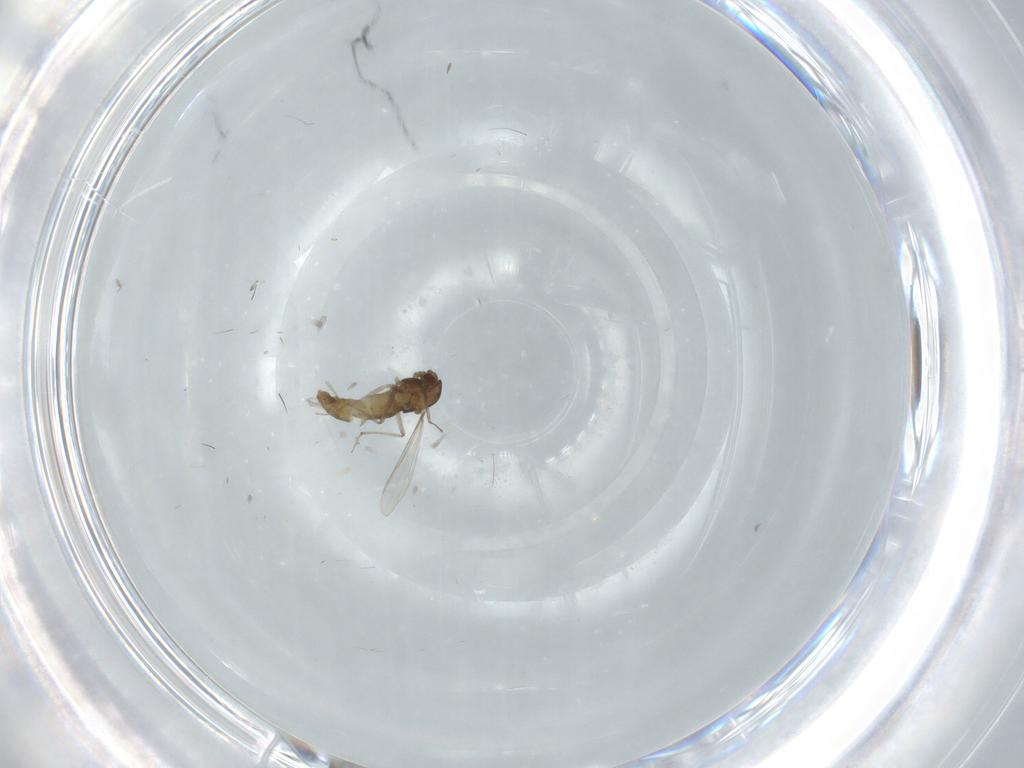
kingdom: Animalia
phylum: Arthropoda
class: Insecta
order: Diptera
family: Chironomidae
